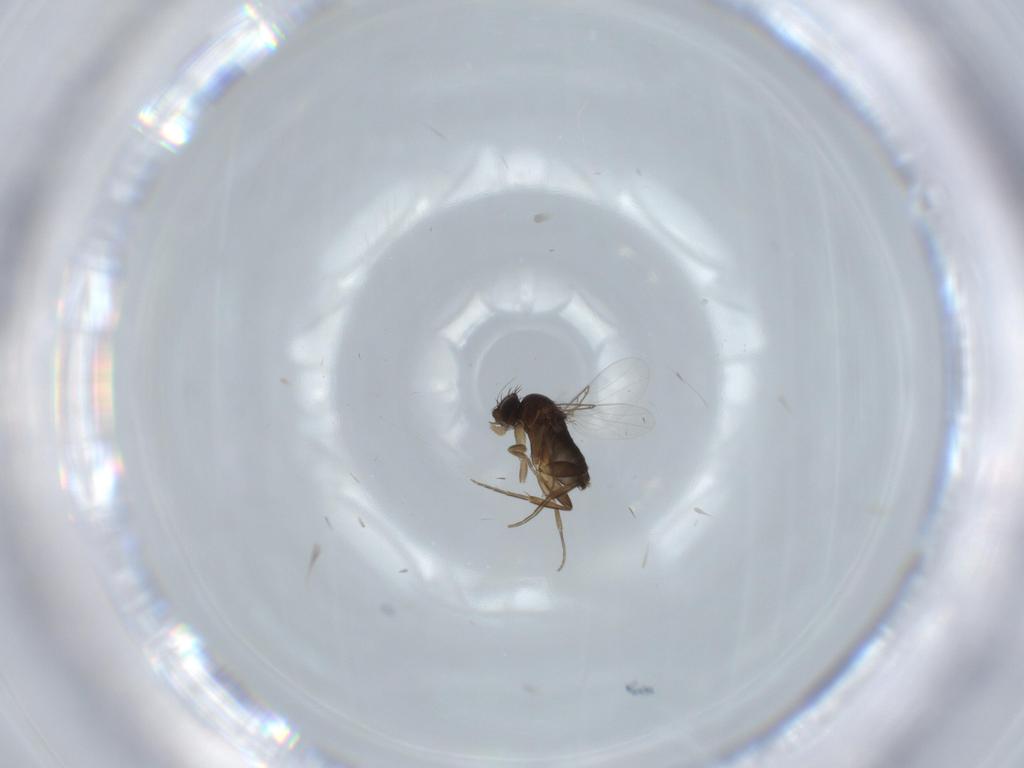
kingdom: Animalia
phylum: Arthropoda
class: Insecta
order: Diptera
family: Phoridae
